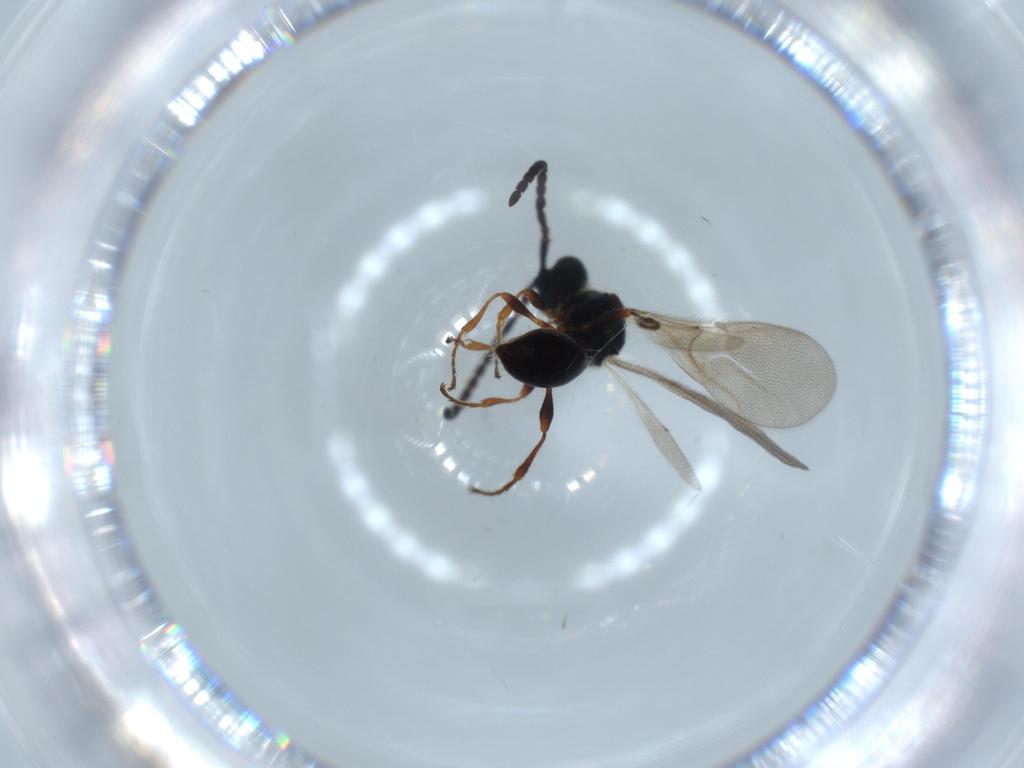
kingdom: Animalia
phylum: Arthropoda
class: Insecta
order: Hymenoptera
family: Diapriidae
